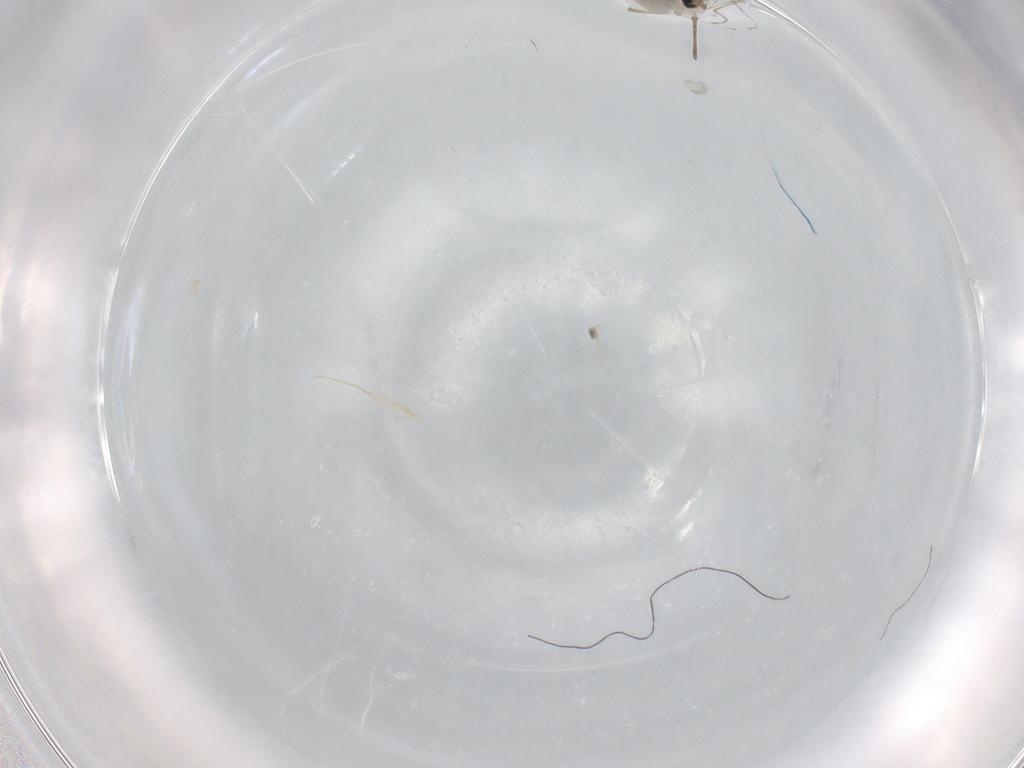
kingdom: Animalia
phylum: Arthropoda
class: Insecta
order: Diptera
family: Cecidomyiidae
